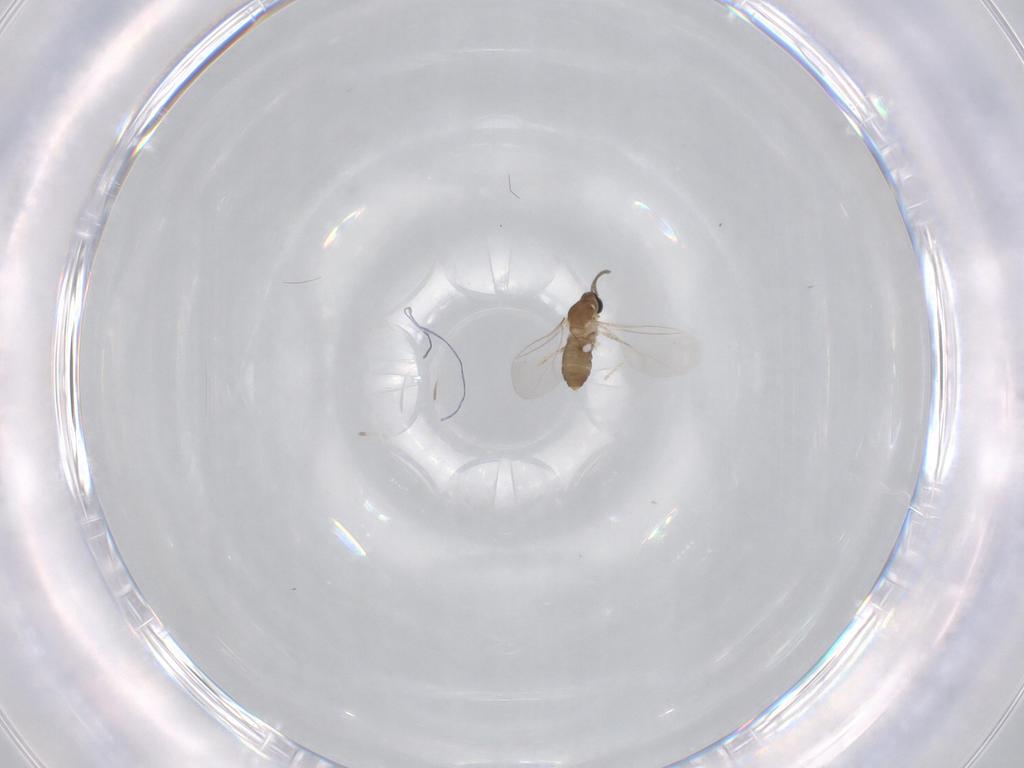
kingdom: Animalia
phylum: Arthropoda
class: Insecta
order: Diptera
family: Cecidomyiidae
